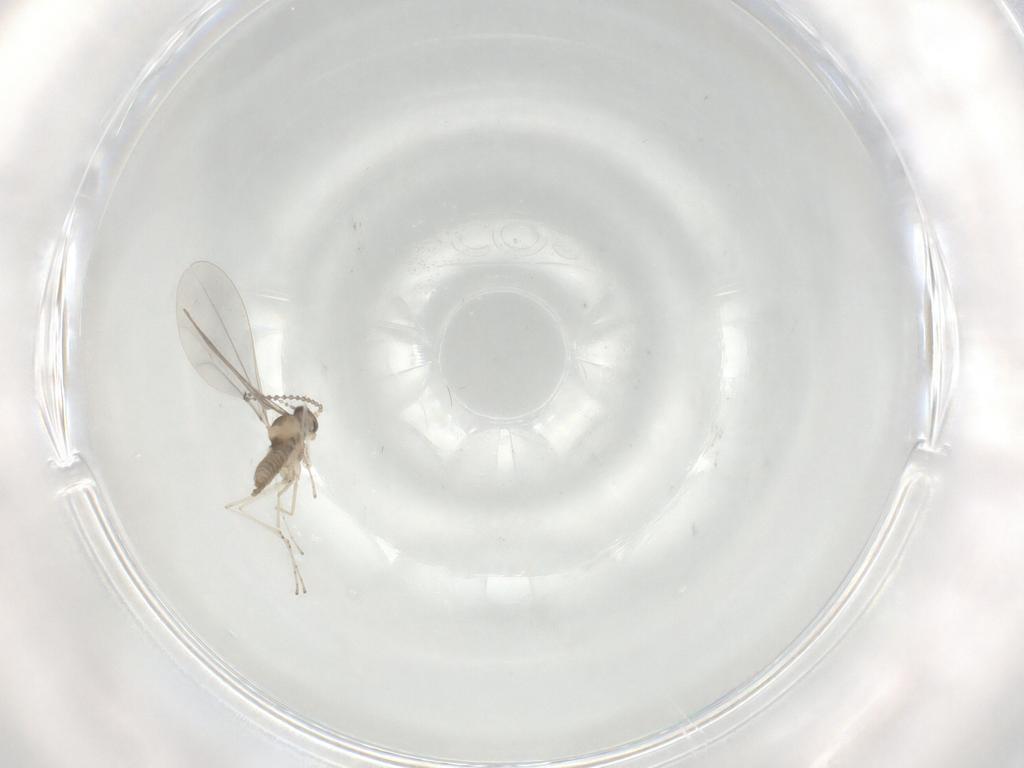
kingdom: Animalia
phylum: Arthropoda
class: Insecta
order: Diptera
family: Cecidomyiidae
